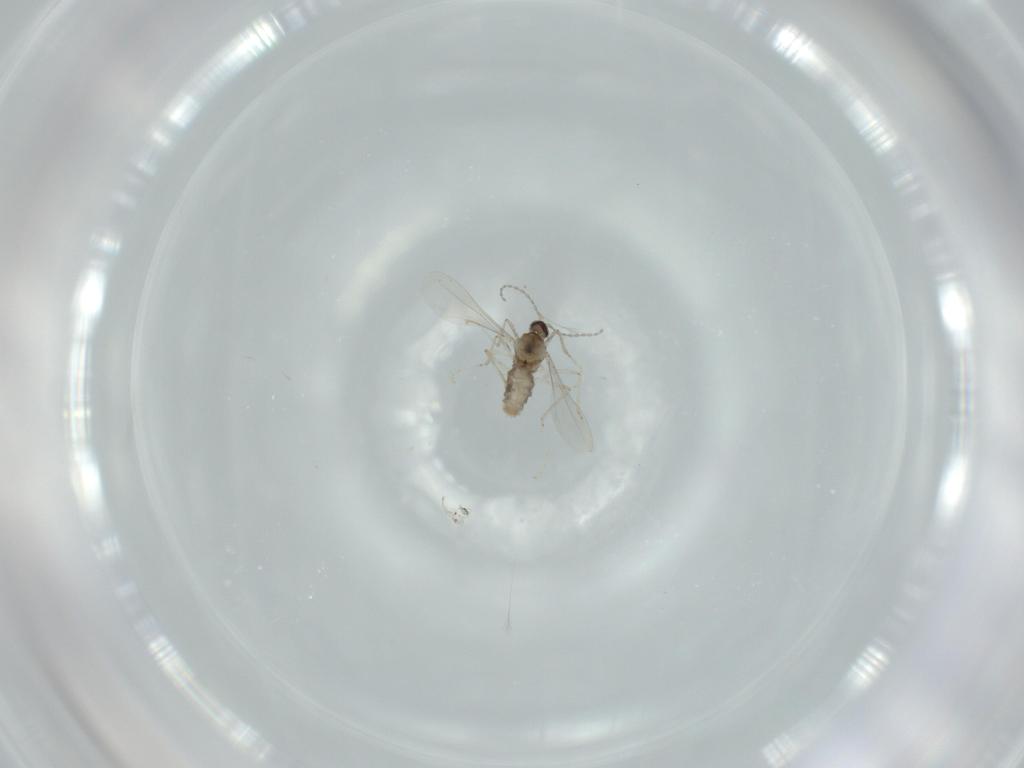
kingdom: Animalia
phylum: Arthropoda
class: Insecta
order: Diptera
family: Cecidomyiidae
